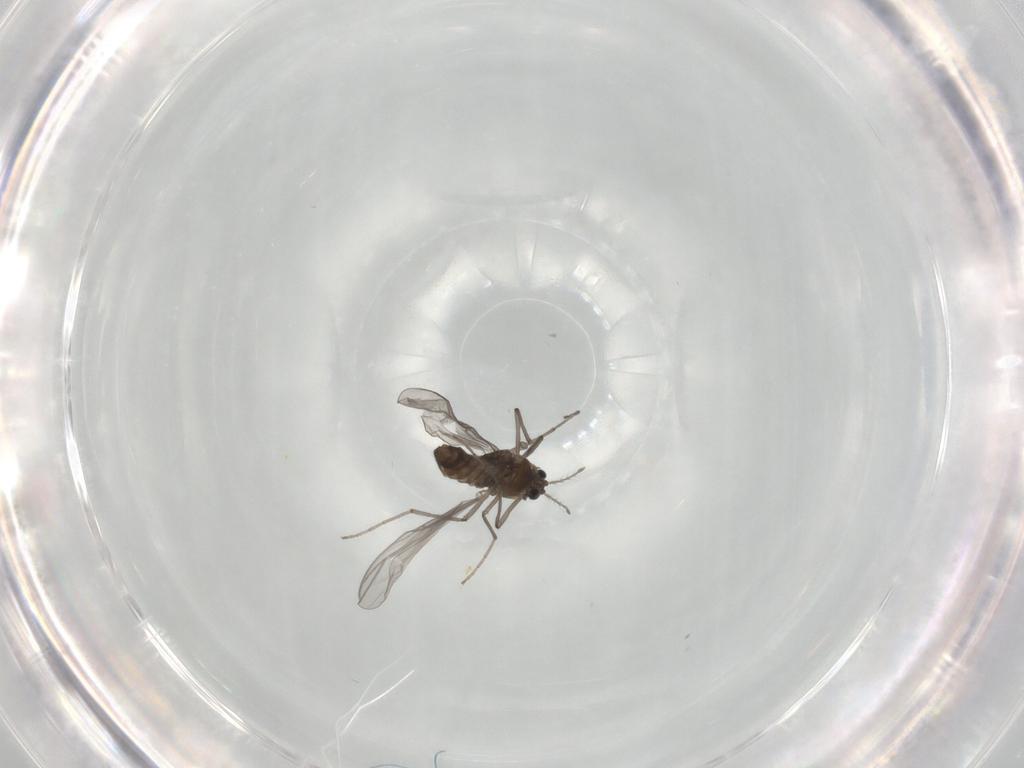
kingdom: Animalia
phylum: Arthropoda
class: Insecta
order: Diptera
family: Chironomidae
